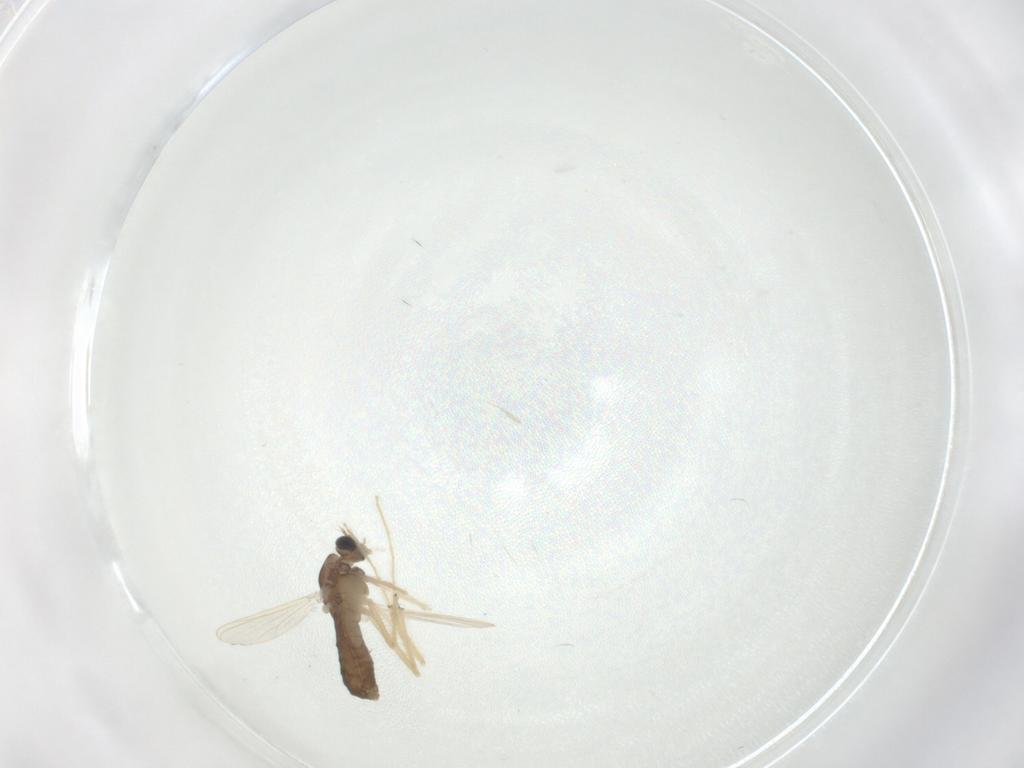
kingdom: Animalia
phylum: Arthropoda
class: Insecta
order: Diptera
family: Chironomidae
